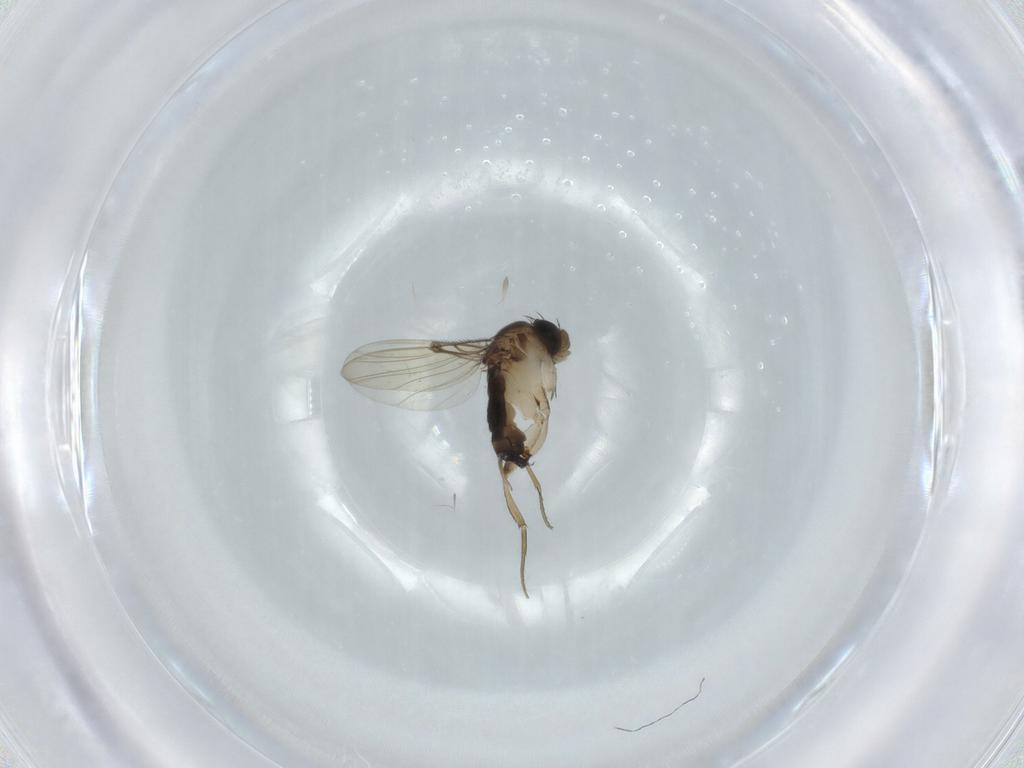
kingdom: Animalia
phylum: Arthropoda
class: Insecta
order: Diptera
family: Phoridae
